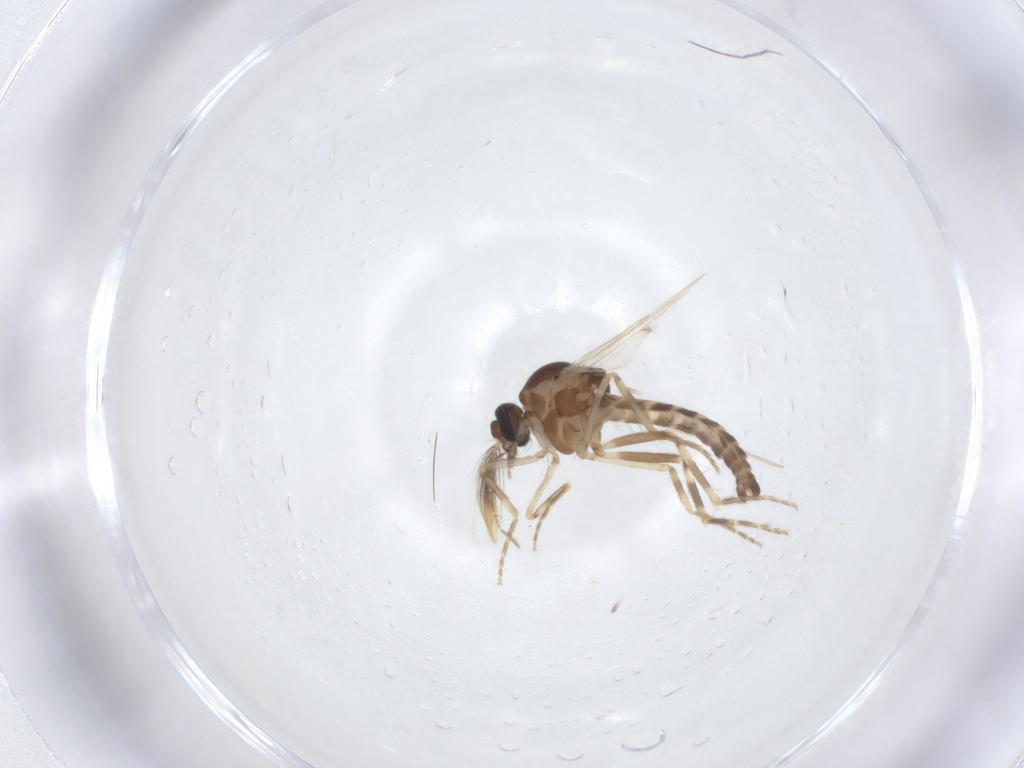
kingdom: Animalia
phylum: Arthropoda
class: Insecta
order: Diptera
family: Ceratopogonidae
